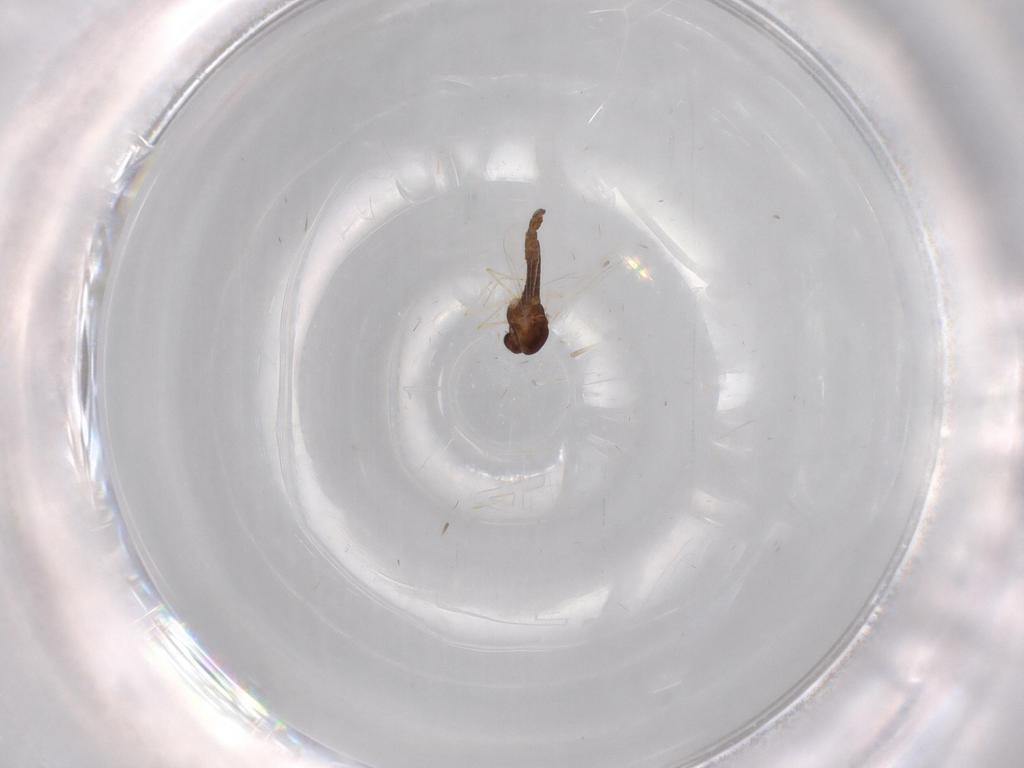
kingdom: Animalia
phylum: Arthropoda
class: Insecta
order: Diptera
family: Chironomidae
